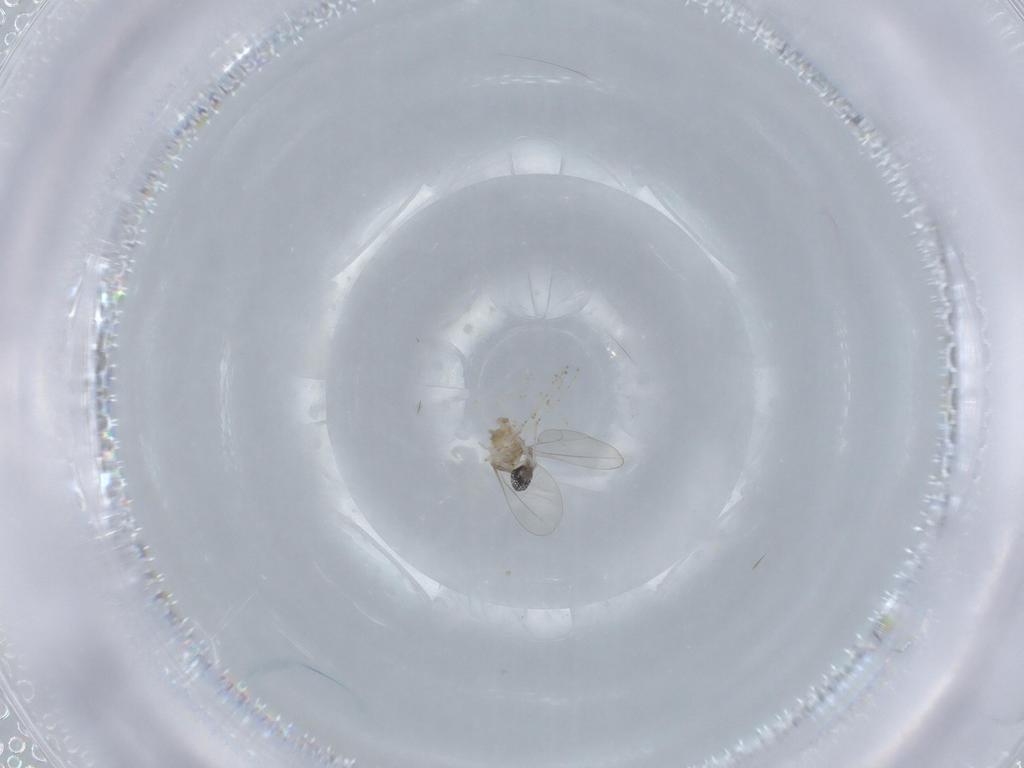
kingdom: Animalia
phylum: Arthropoda
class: Insecta
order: Diptera
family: Cecidomyiidae
